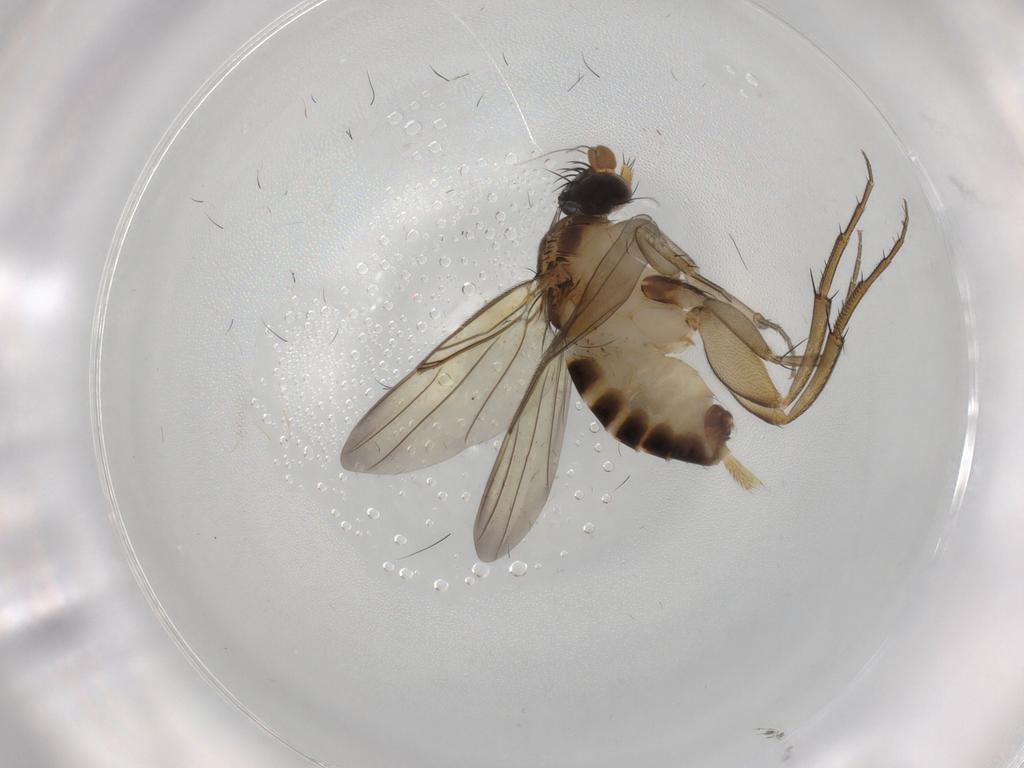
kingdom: Animalia
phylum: Arthropoda
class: Insecta
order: Diptera
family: Phoridae
